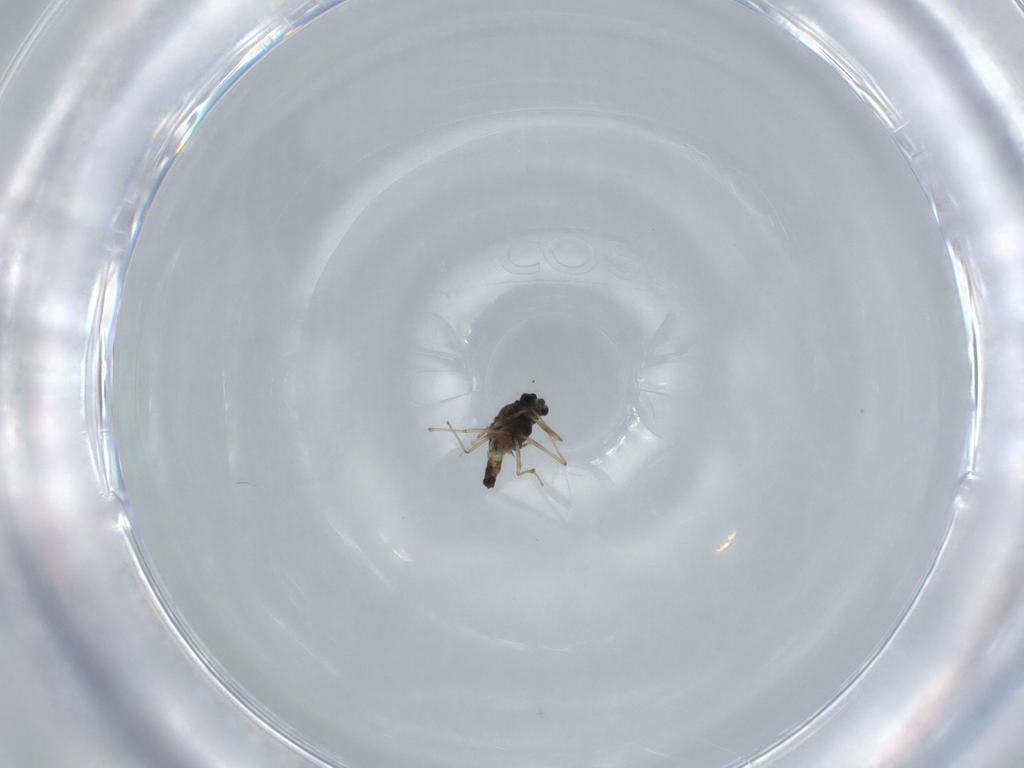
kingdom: Animalia
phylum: Arthropoda
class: Insecta
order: Diptera
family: Chironomidae
